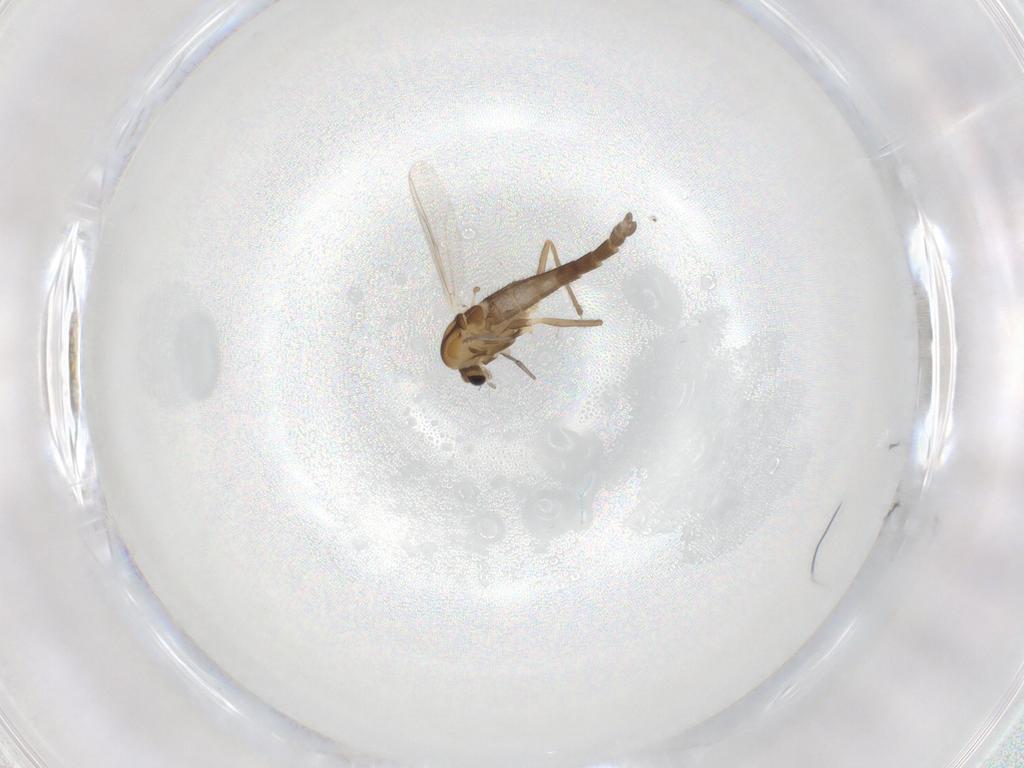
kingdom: Animalia
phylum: Arthropoda
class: Insecta
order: Diptera
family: Chironomidae
